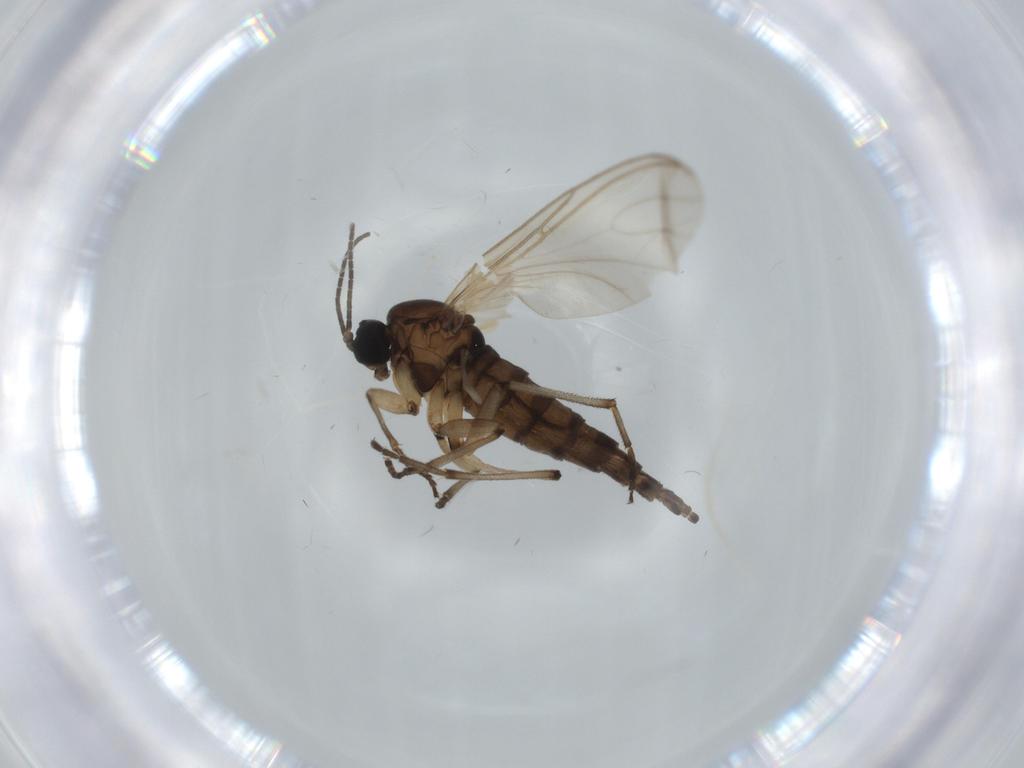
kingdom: Animalia
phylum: Arthropoda
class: Insecta
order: Diptera
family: Sciaridae
